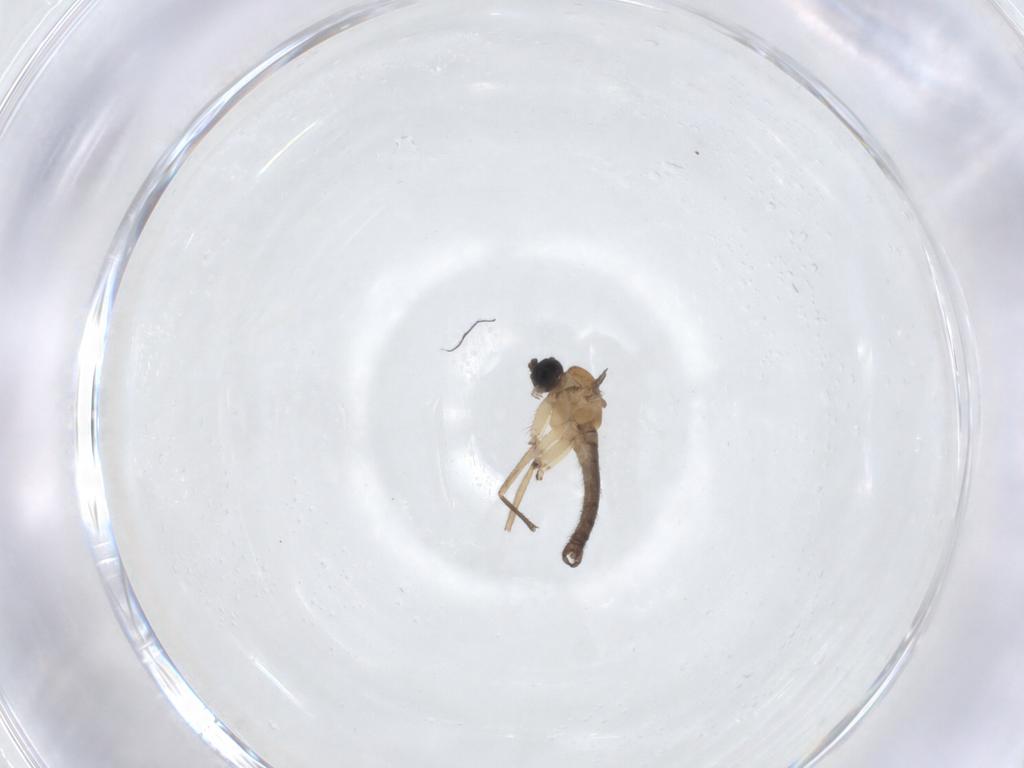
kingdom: Animalia
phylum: Arthropoda
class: Insecta
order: Diptera
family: Sciaridae
